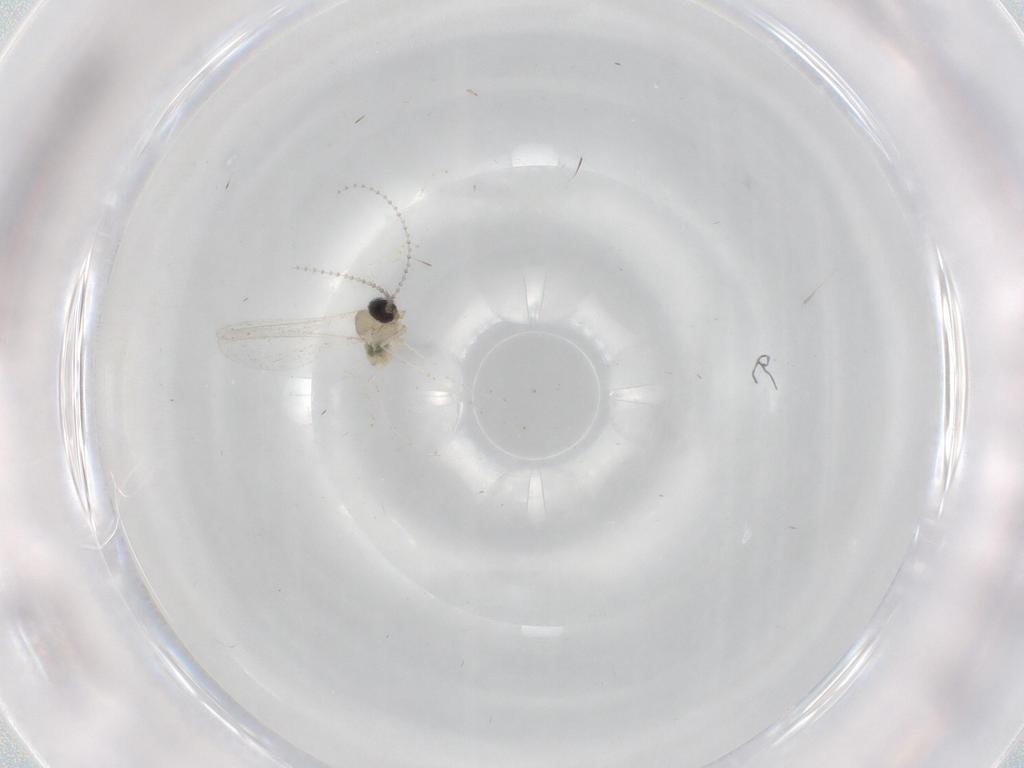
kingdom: Animalia
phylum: Arthropoda
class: Insecta
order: Diptera
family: Cecidomyiidae
